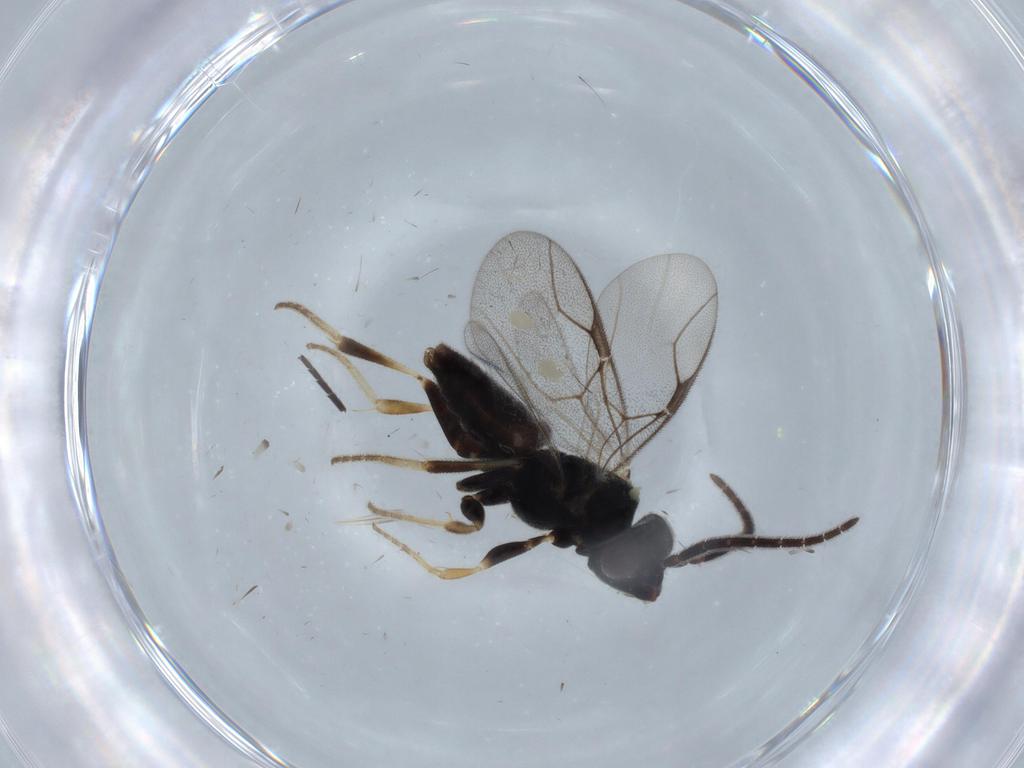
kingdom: Animalia
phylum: Arthropoda
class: Insecta
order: Hymenoptera
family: Dryinidae
